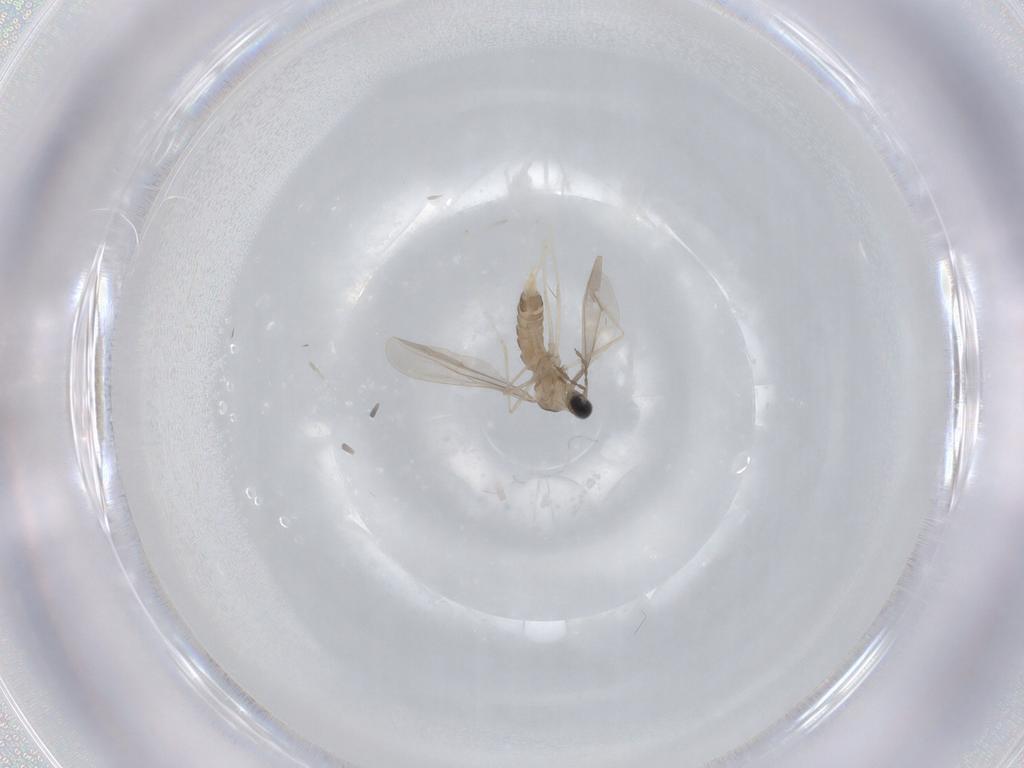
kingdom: Animalia
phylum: Arthropoda
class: Insecta
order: Diptera
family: Cecidomyiidae
